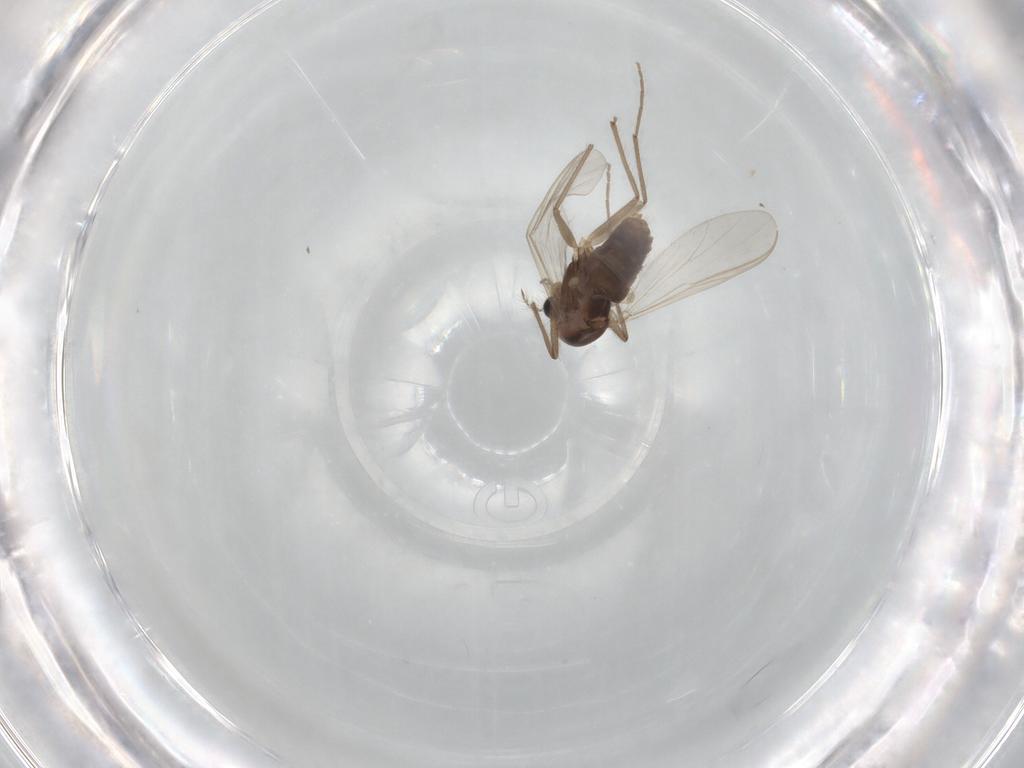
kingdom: Animalia
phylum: Arthropoda
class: Insecta
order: Diptera
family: Chironomidae
